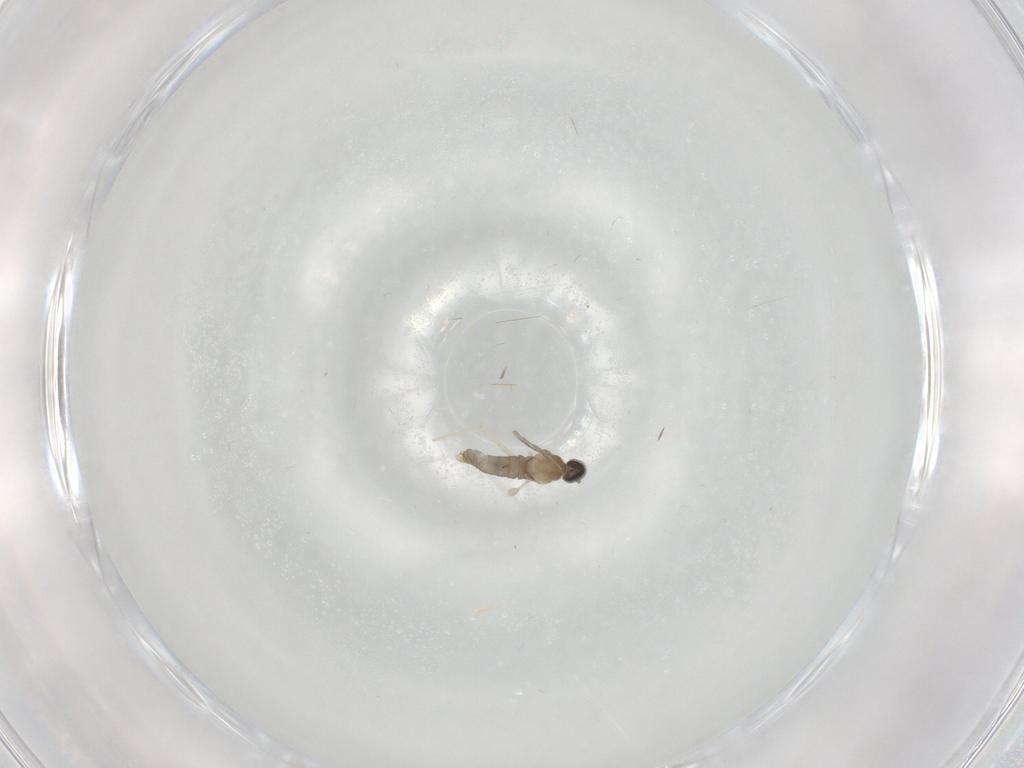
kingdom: Animalia
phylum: Arthropoda
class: Insecta
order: Diptera
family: Cecidomyiidae
